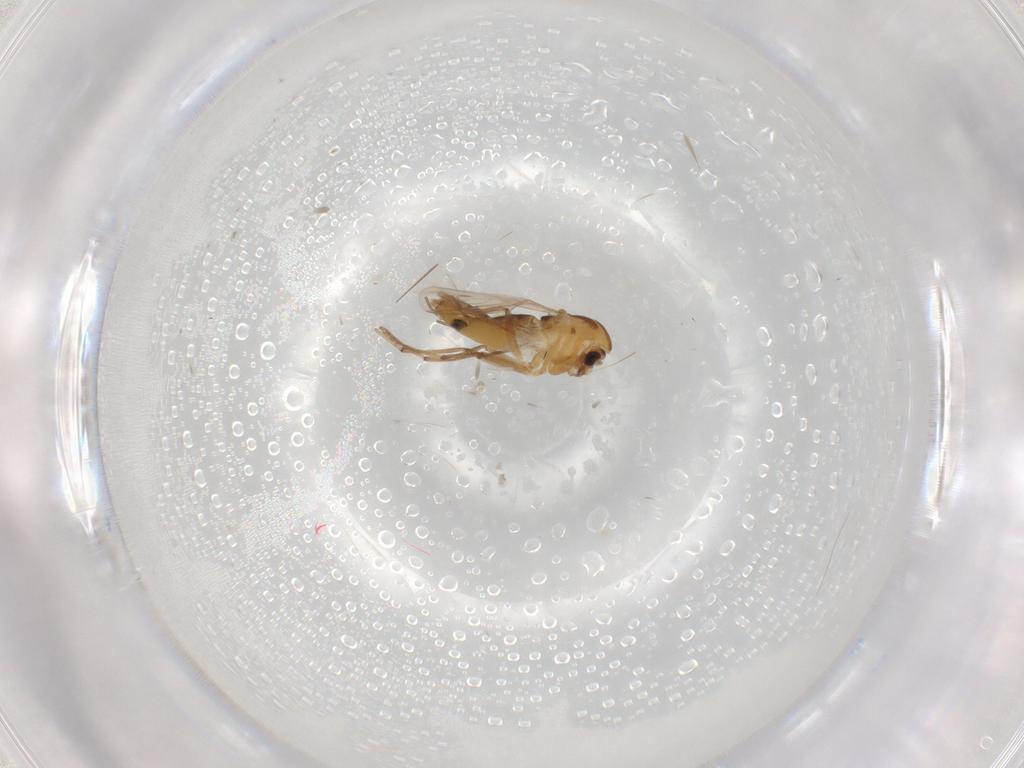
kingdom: Animalia
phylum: Arthropoda
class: Insecta
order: Diptera
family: Chironomidae
